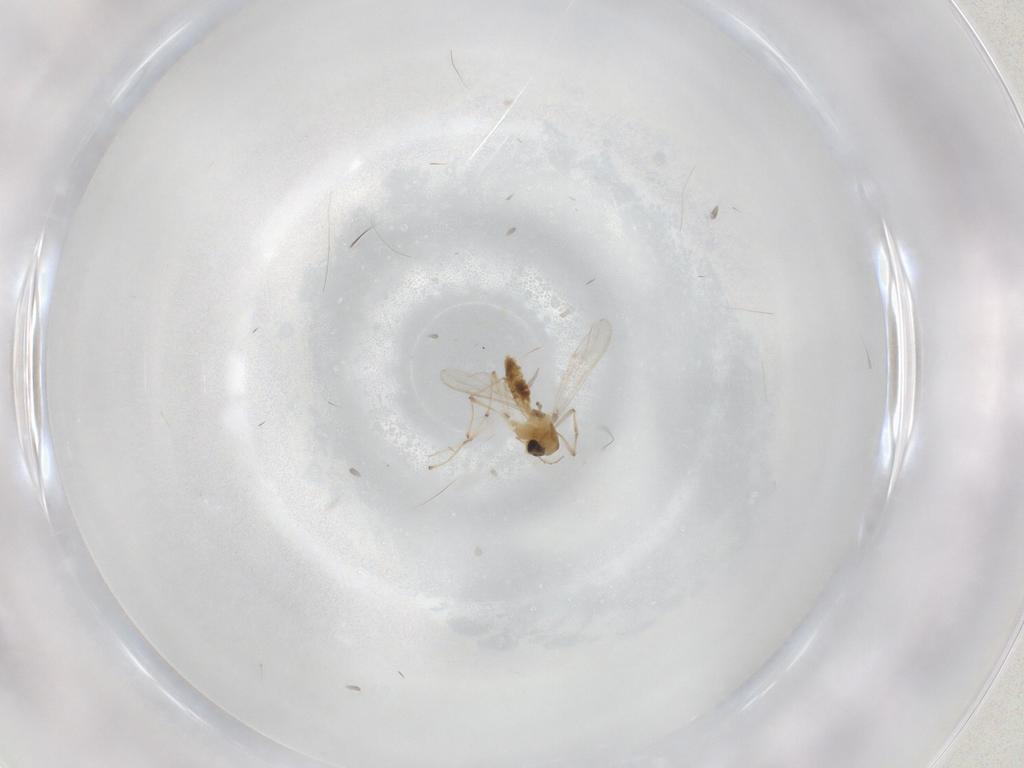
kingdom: Animalia
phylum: Arthropoda
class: Insecta
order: Diptera
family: Chironomidae
